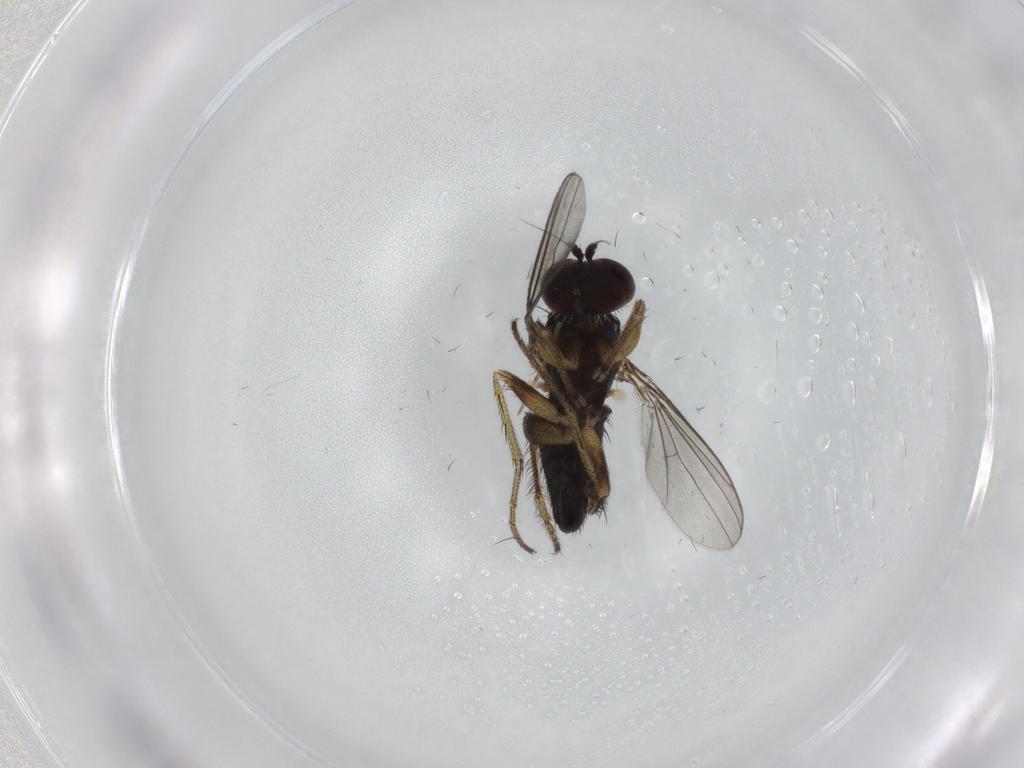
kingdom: Animalia
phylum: Arthropoda
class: Insecta
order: Diptera
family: Dolichopodidae
